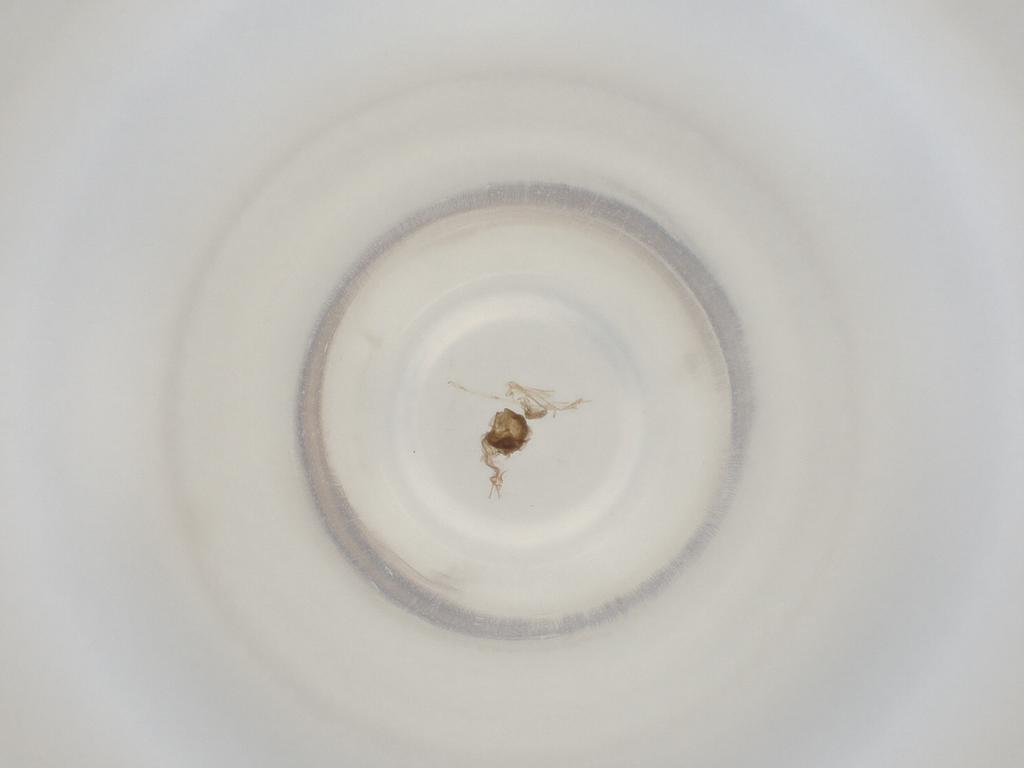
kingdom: Animalia
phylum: Arthropoda
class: Insecta
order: Diptera
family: Cecidomyiidae
